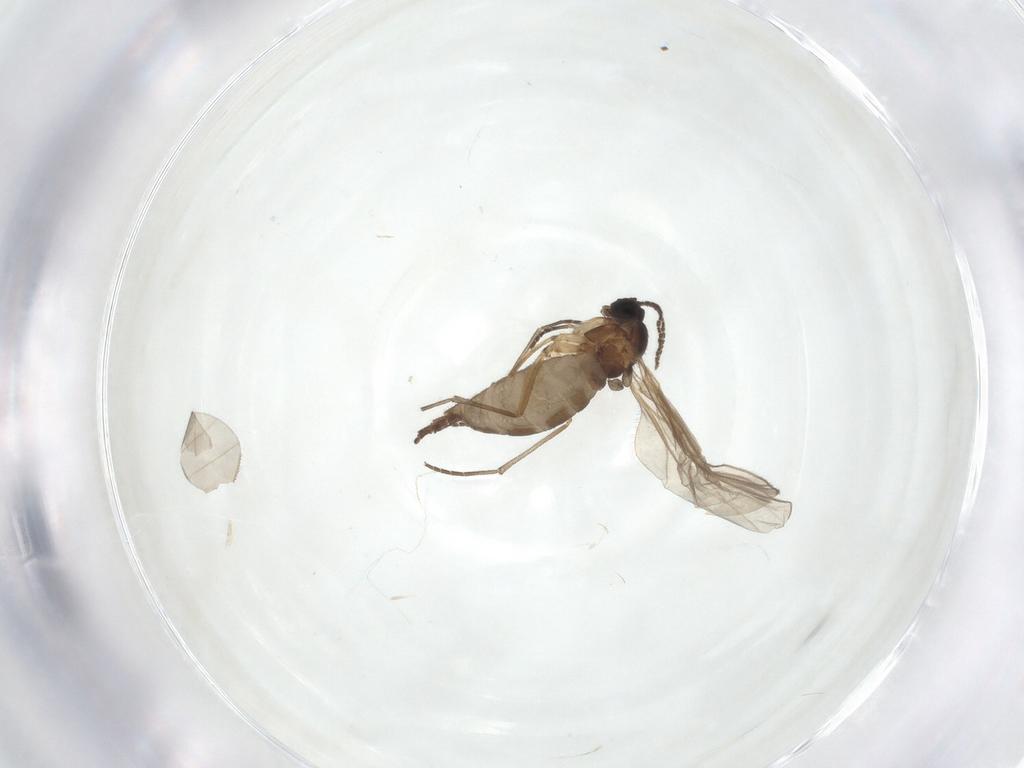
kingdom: Animalia
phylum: Arthropoda
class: Insecta
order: Diptera
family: Sciaridae
